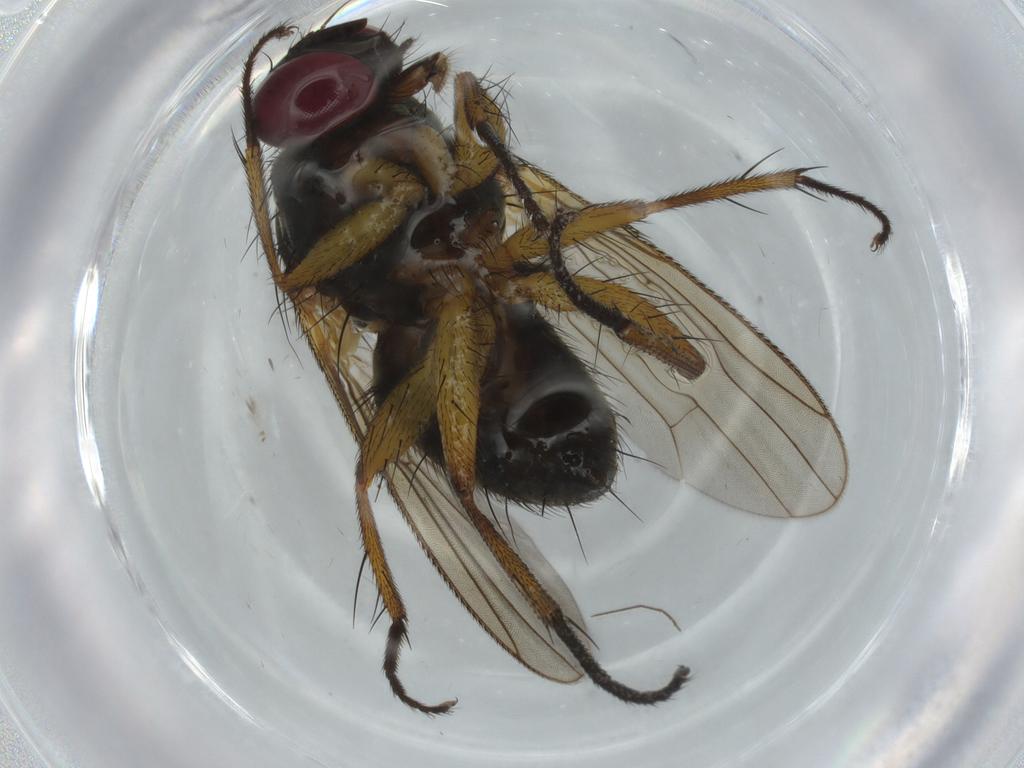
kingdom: Animalia
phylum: Arthropoda
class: Insecta
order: Diptera
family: Muscidae
